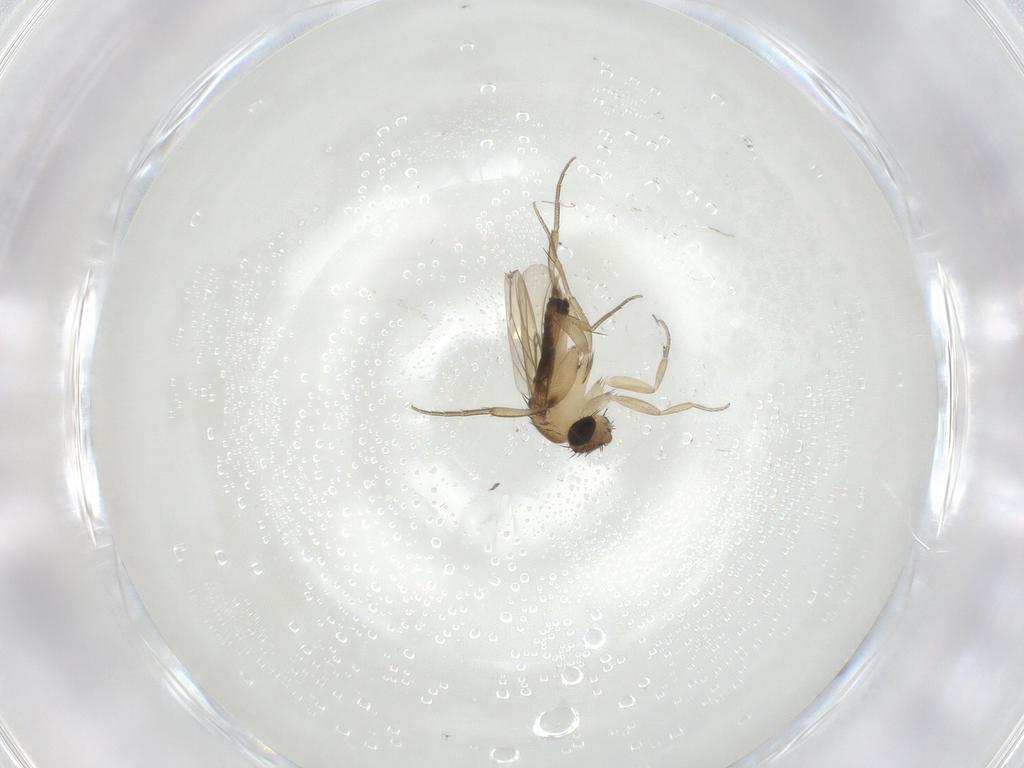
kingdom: Animalia
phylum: Arthropoda
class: Insecta
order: Diptera
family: Phoridae
